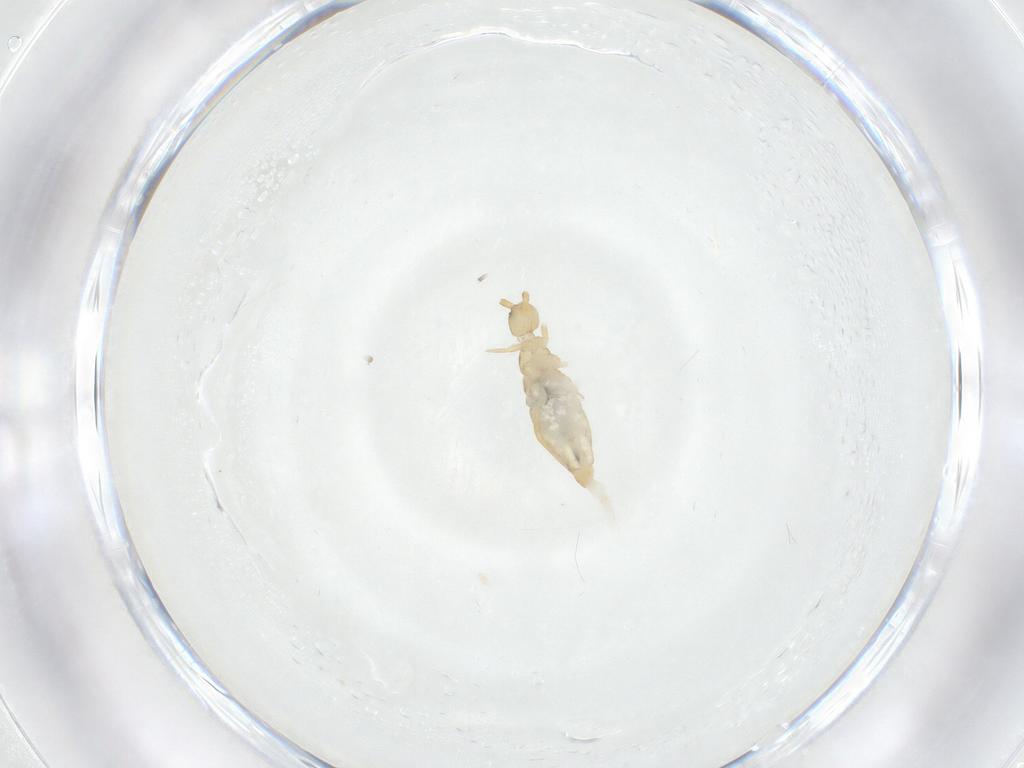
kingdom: Animalia
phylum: Arthropoda
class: Collembola
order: Entomobryomorpha
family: Entomobryidae
